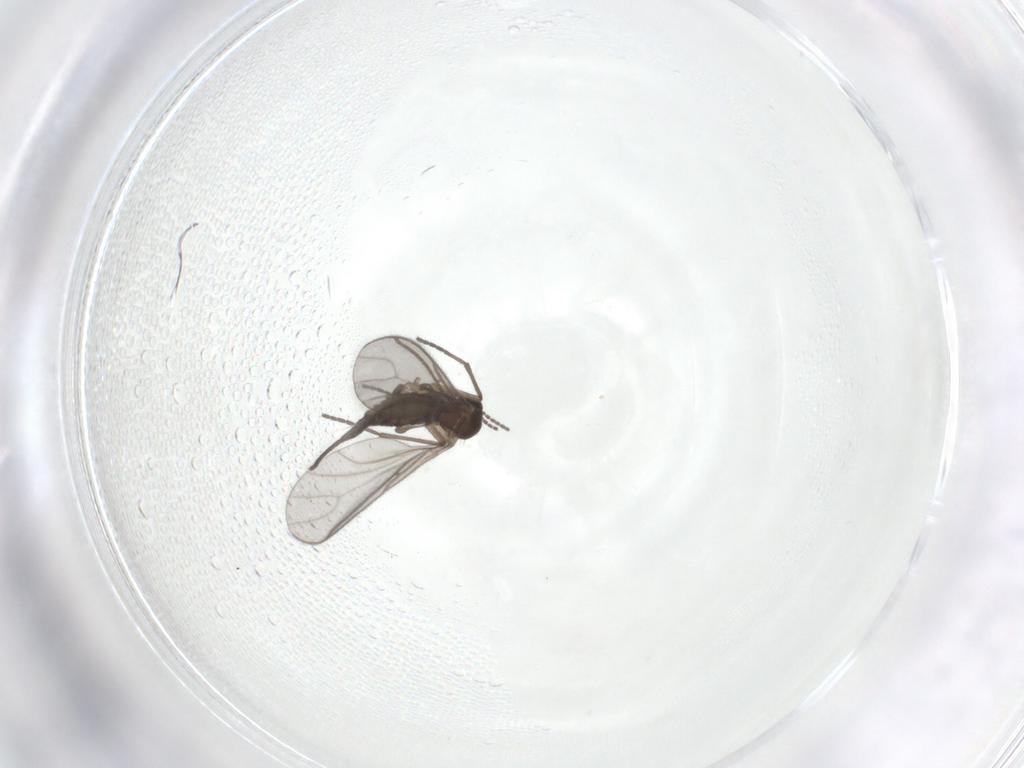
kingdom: Animalia
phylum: Arthropoda
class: Insecta
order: Diptera
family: Sciaridae
